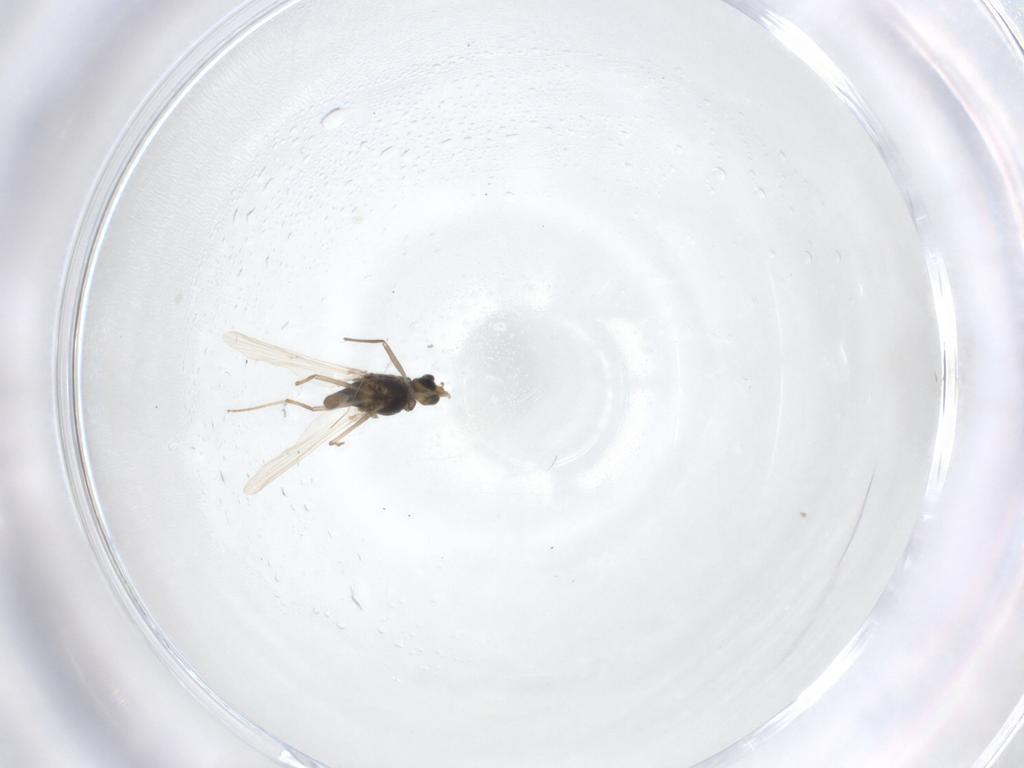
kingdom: Animalia
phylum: Arthropoda
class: Insecta
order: Diptera
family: Chironomidae
